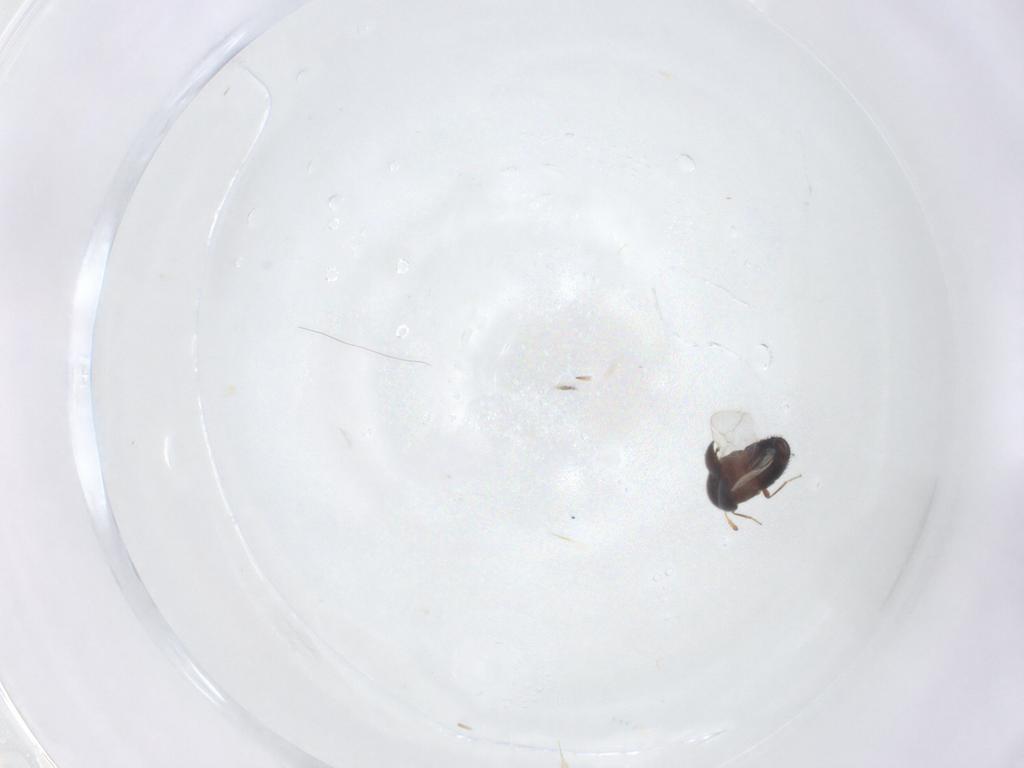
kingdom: Animalia
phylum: Arthropoda
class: Insecta
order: Coleoptera
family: Staphylinidae
